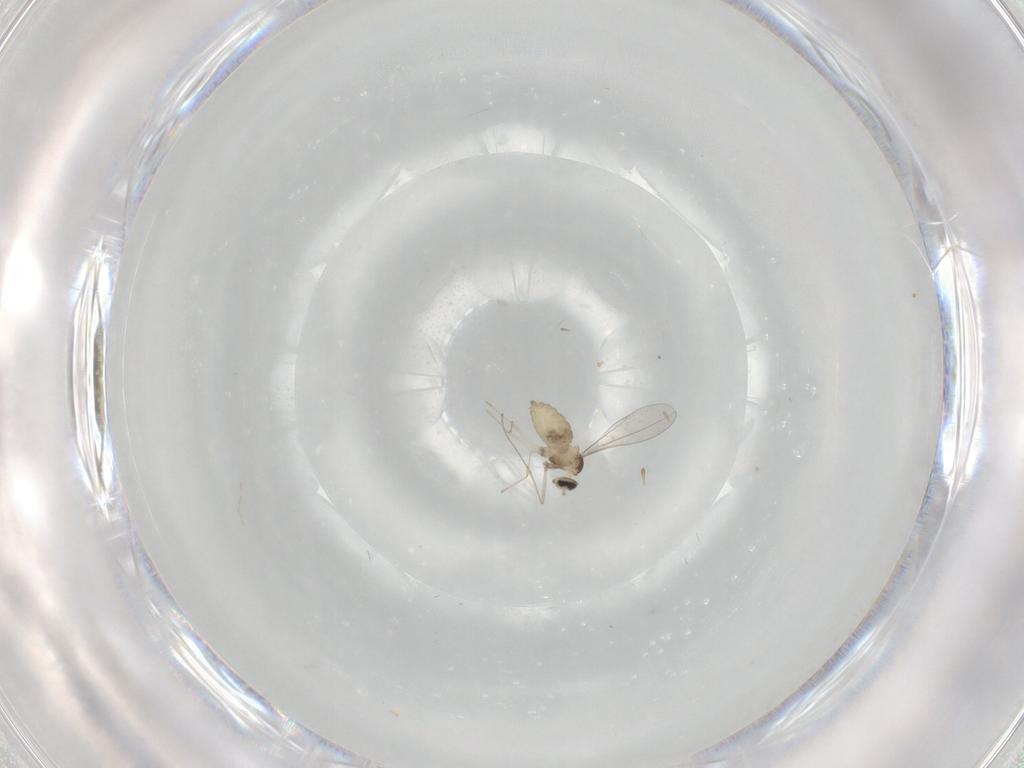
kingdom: Animalia
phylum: Arthropoda
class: Insecta
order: Diptera
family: Cecidomyiidae
